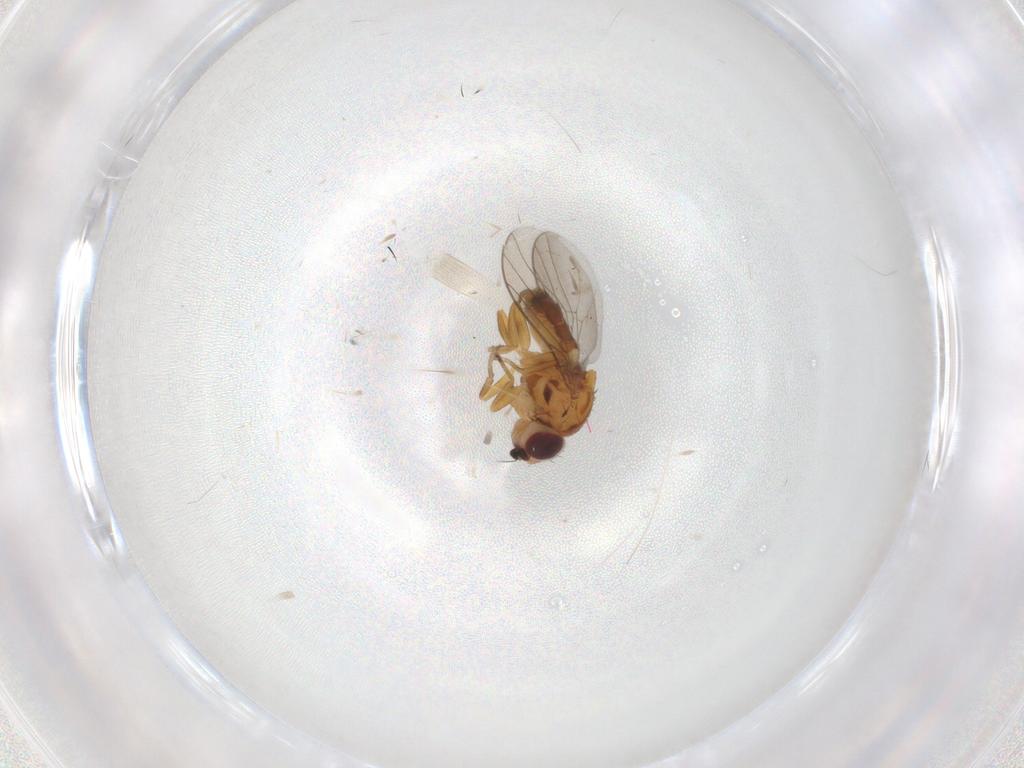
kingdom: Animalia
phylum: Arthropoda
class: Insecta
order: Diptera
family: Chloropidae
